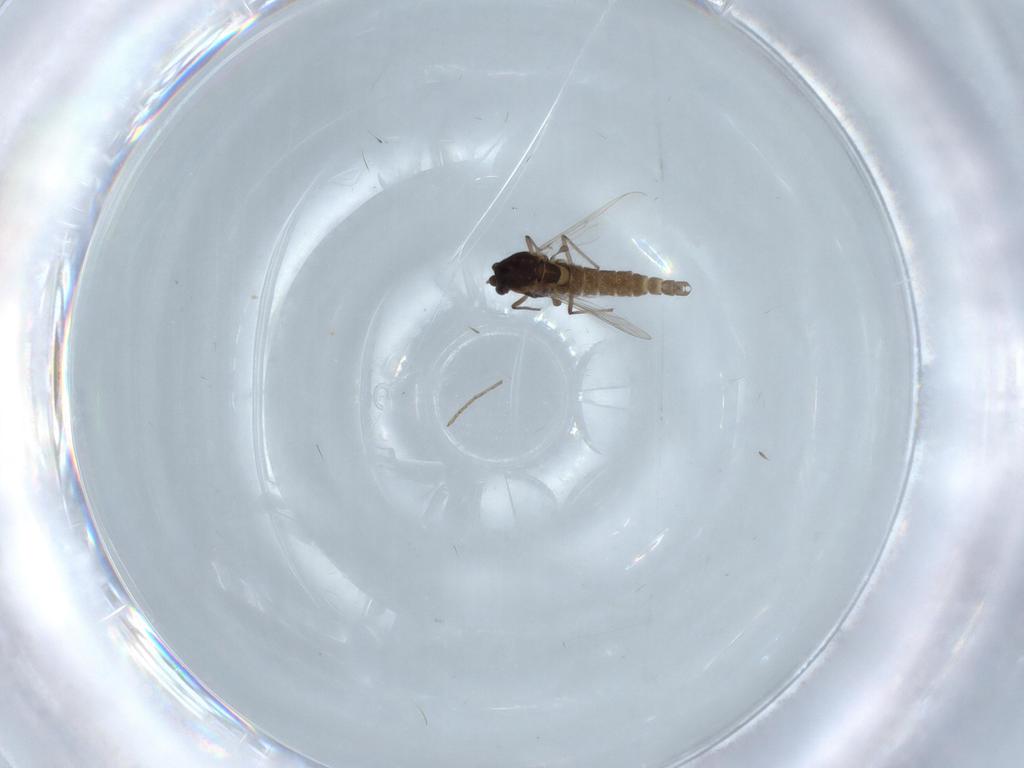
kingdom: Animalia
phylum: Arthropoda
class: Insecta
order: Diptera
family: Chironomidae
